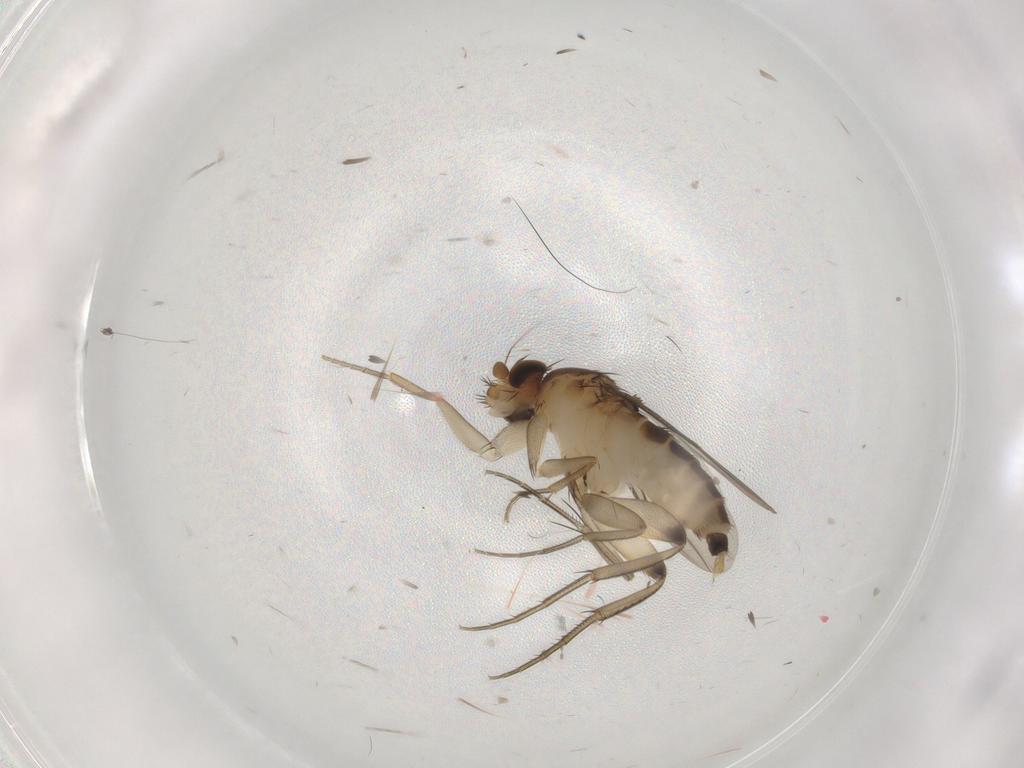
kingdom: Animalia
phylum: Arthropoda
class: Insecta
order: Diptera
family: Cecidomyiidae
